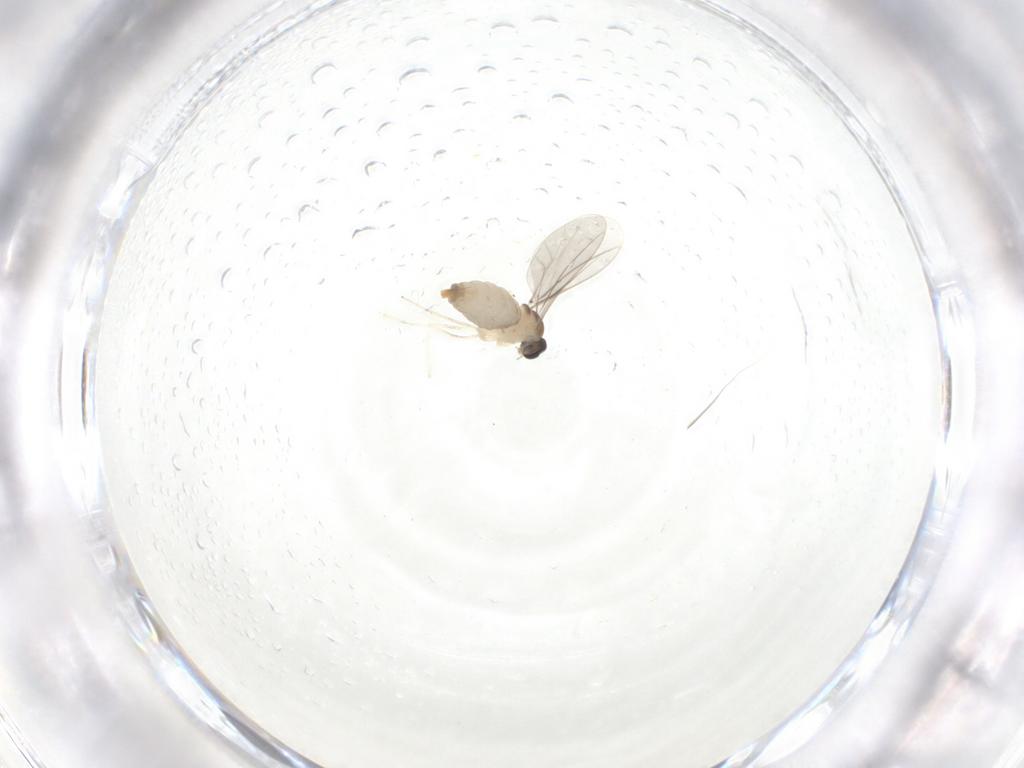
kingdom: Animalia
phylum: Arthropoda
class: Insecta
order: Diptera
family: Cecidomyiidae
